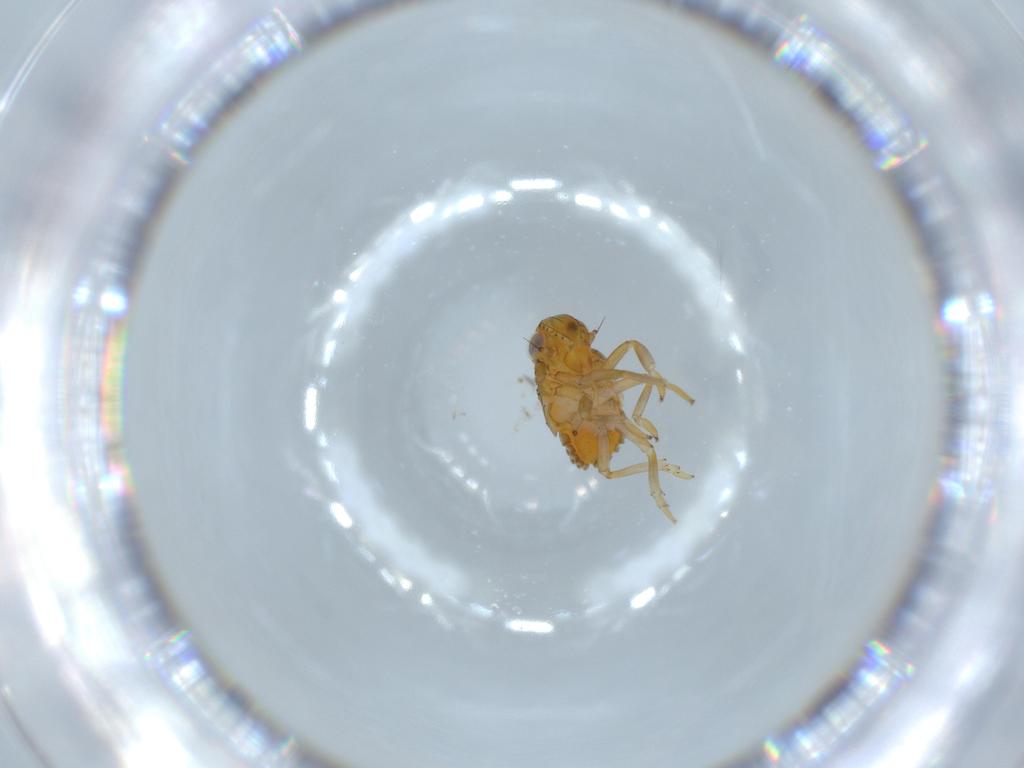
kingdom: Animalia
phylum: Arthropoda
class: Insecta
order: Hemiptera
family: Issidae
